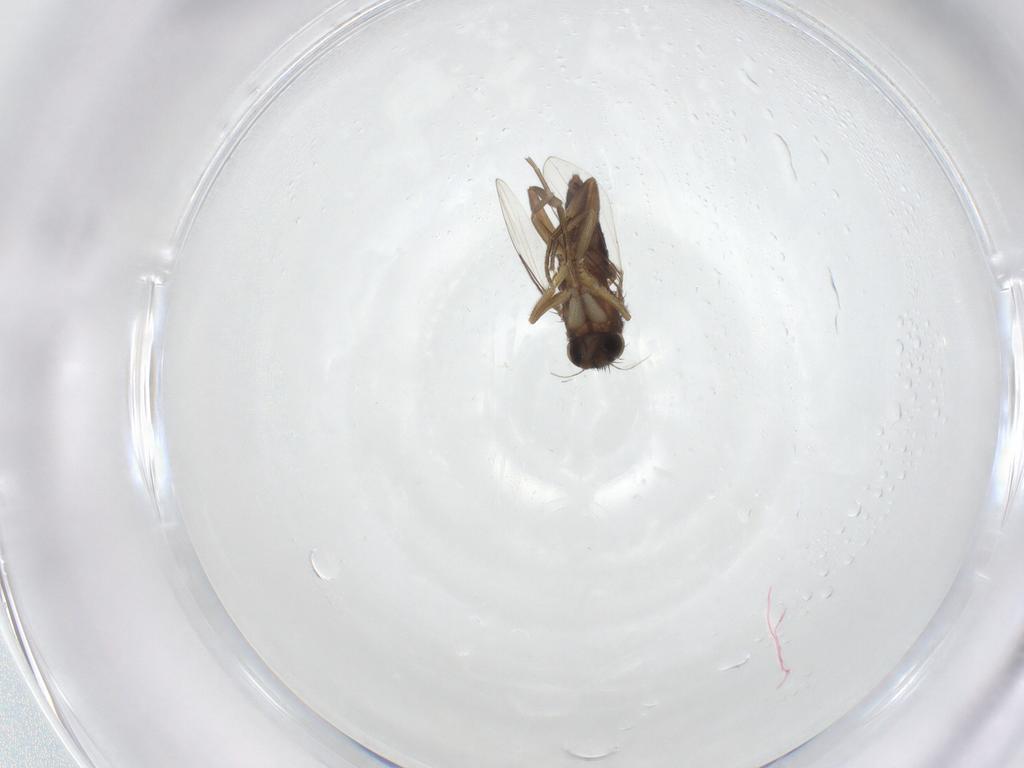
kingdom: Animalia
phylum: Arthropoda
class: Insecta
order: Diptera
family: Phoridae
